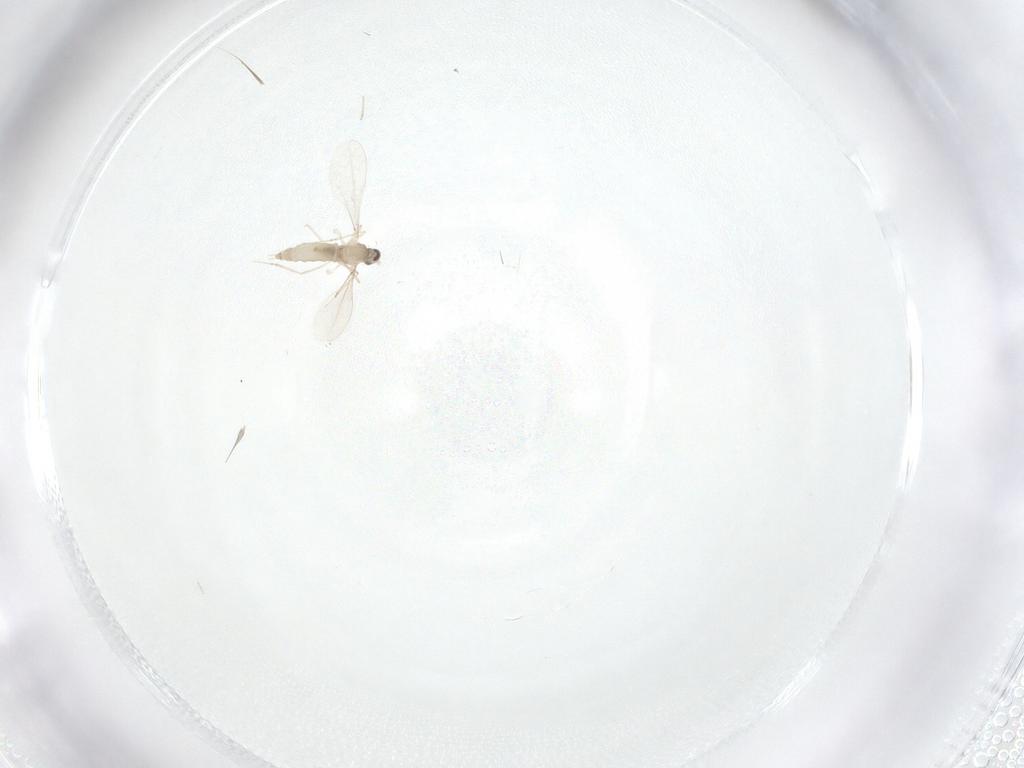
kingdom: Animalia
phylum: Arthropoda
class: Insecta
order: Diptera
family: Cecidomyiidae
